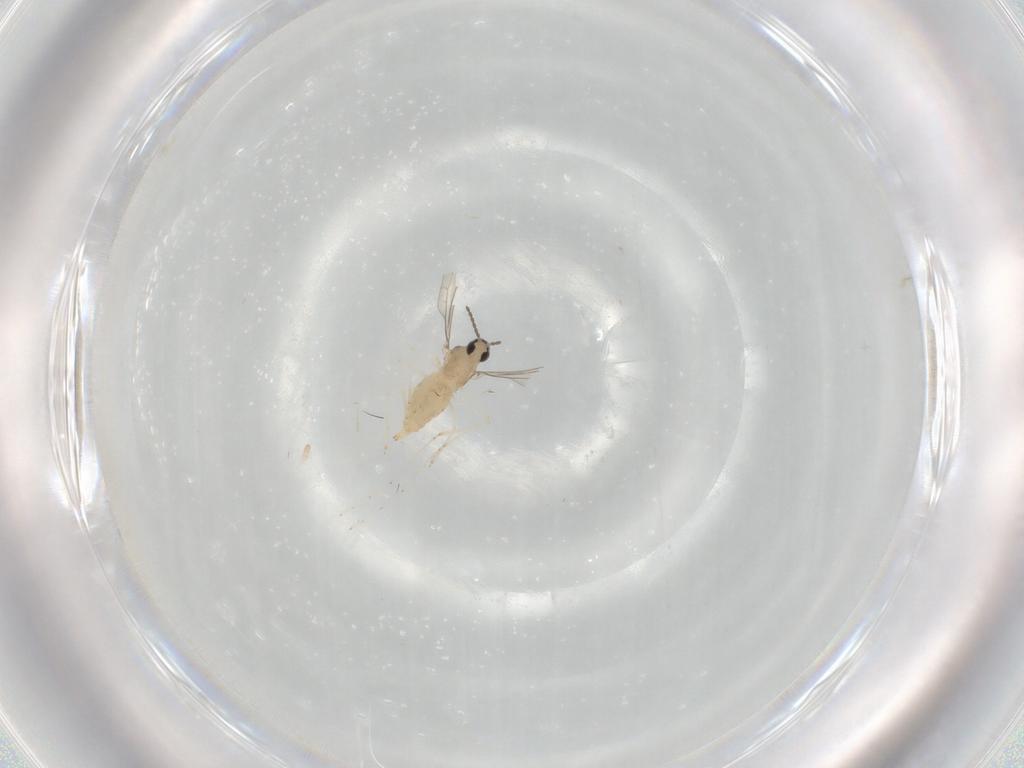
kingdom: Animalia
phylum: Arthropoda
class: Insecta
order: Diptera
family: Cecidomyiidae
